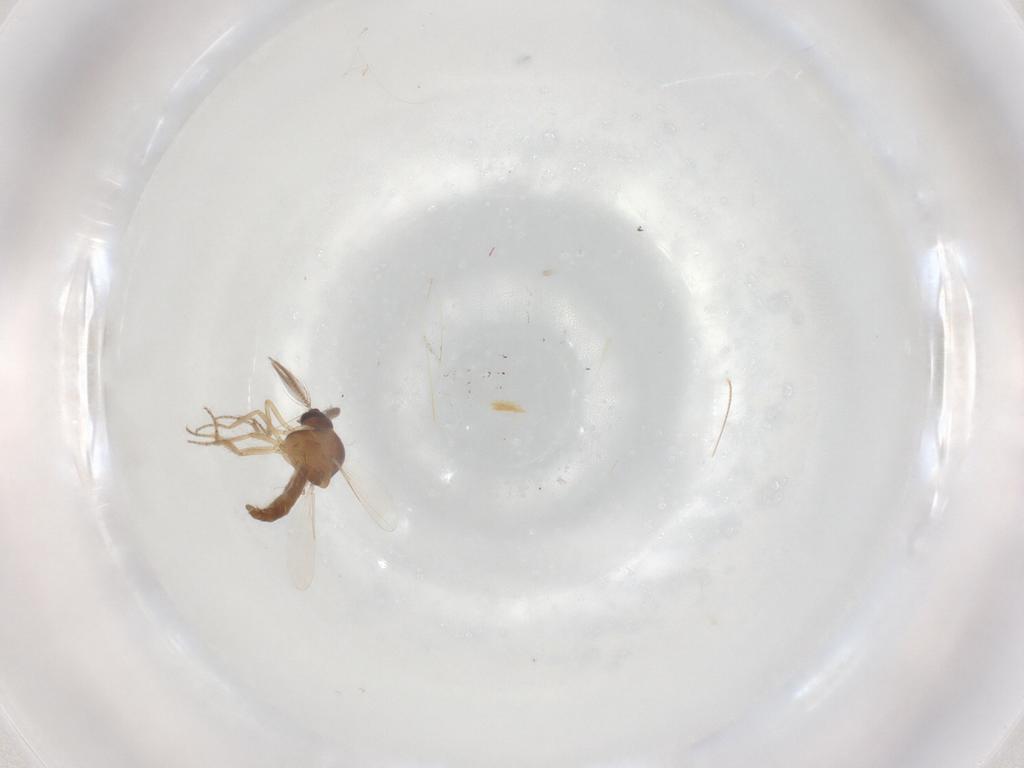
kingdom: Animalia
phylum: Arthropoda
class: Insecta
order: Diptera
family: Ceratopogonidae
